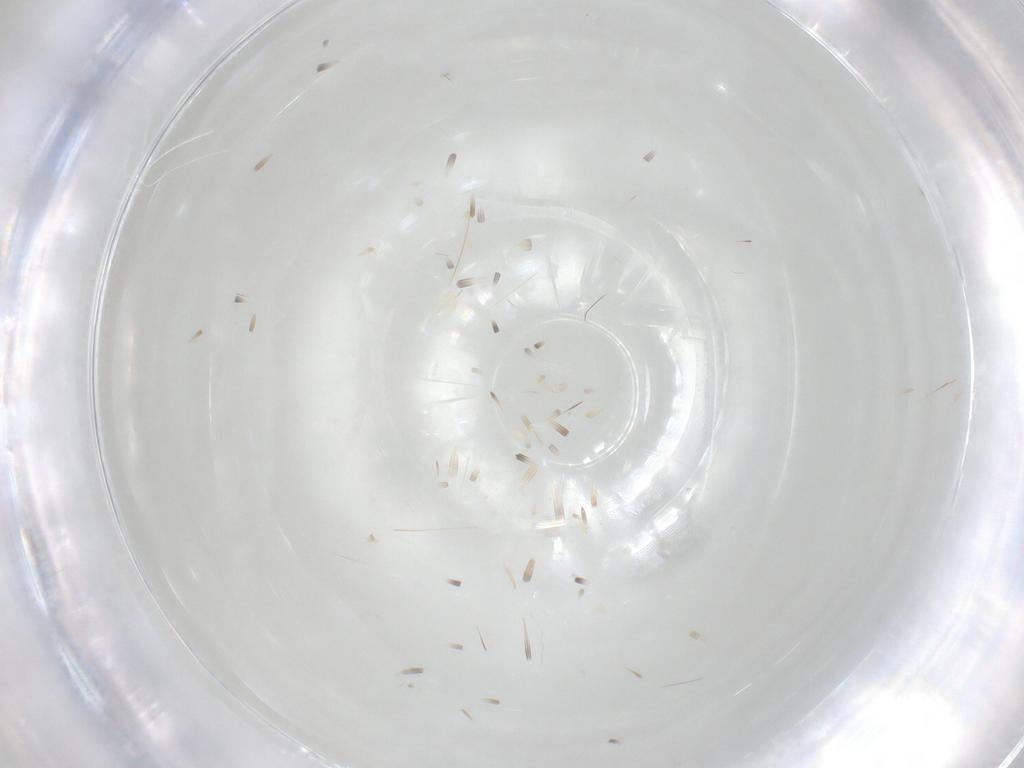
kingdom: Animalia
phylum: Arthropoda
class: Insecta
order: Diptera
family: Cecidomyiidae
